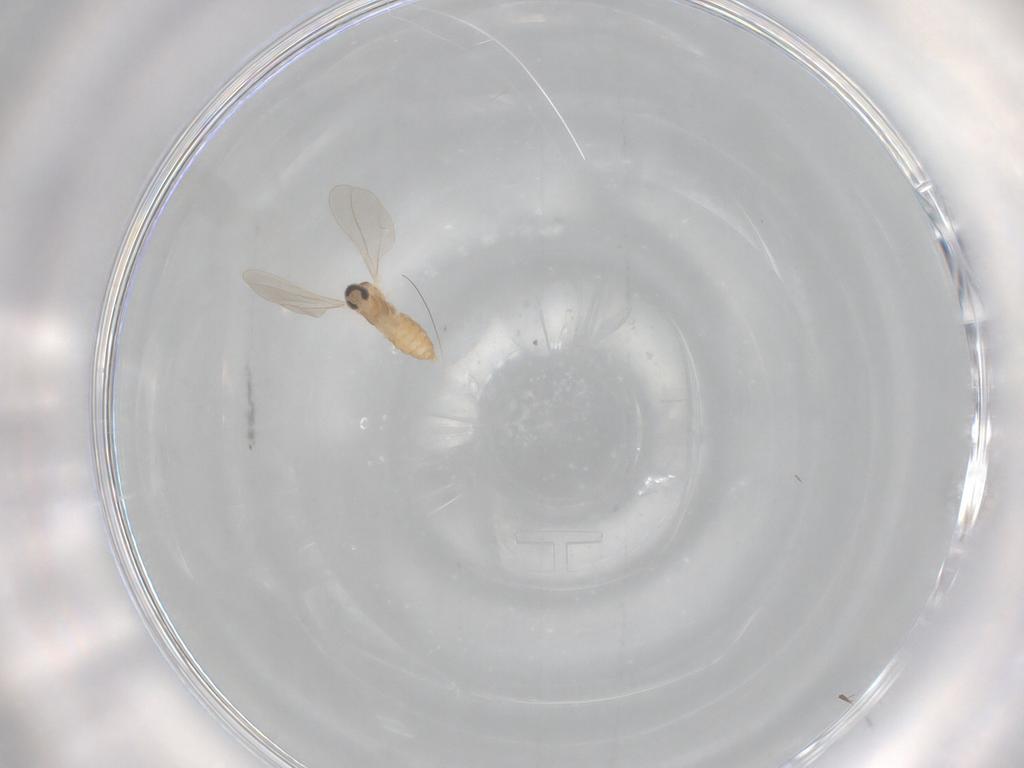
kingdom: Animalia
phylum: Arthropoda
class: Insecta
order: Diptera
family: Cecidomyiidae
